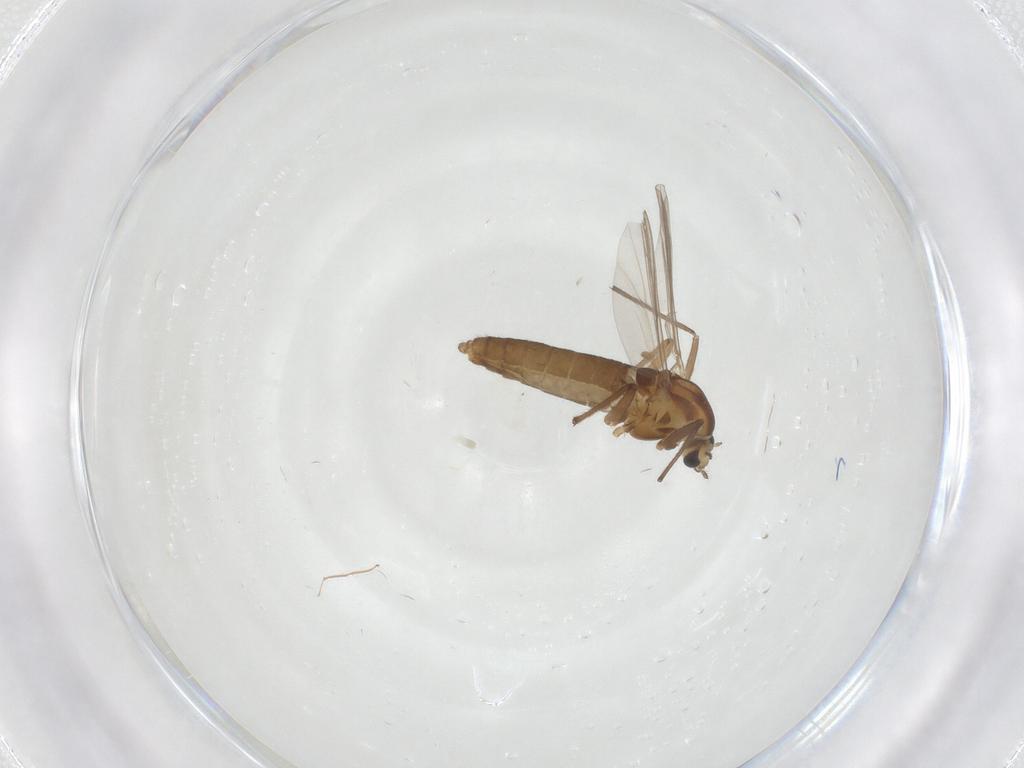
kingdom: Animalia
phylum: Arthropoda
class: Insecta
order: Diptera
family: Chironomidae
